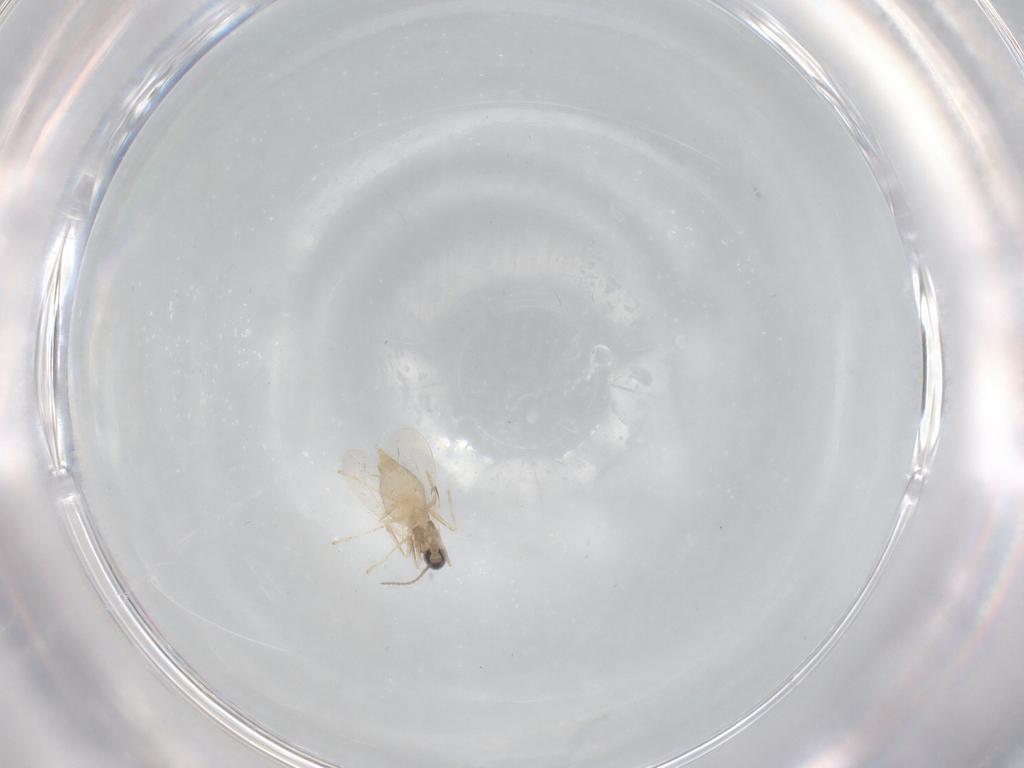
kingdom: Animalia
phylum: Arthropoda
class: Insecta
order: Diptera
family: Cecidomyiidae
